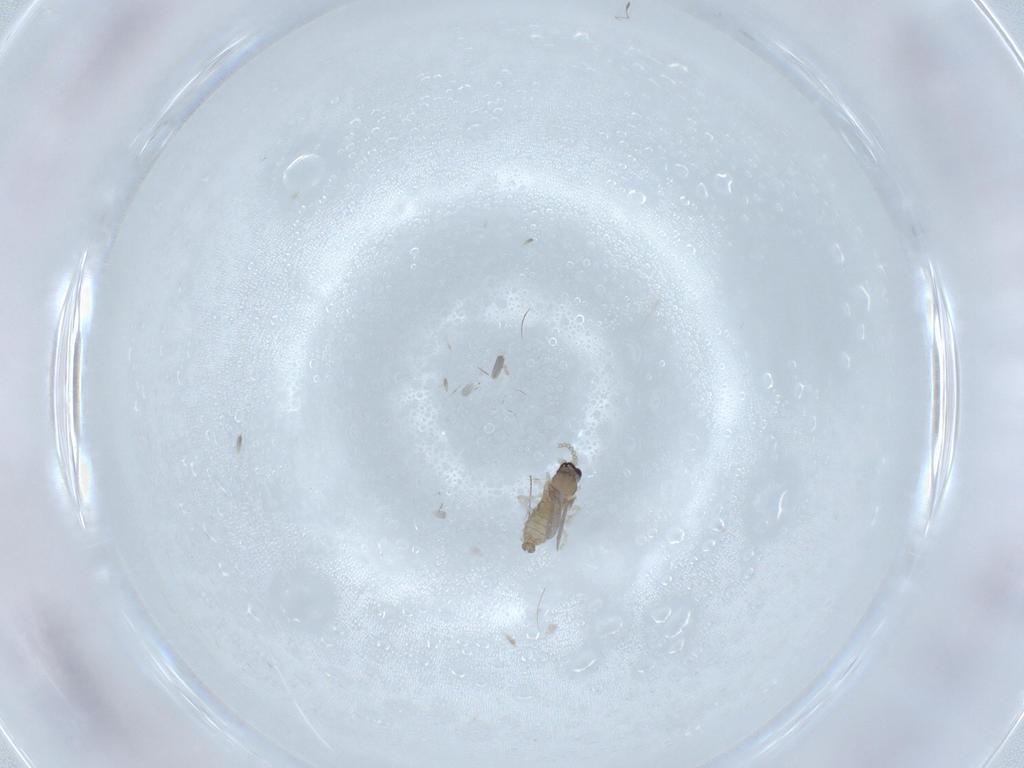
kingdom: Animalia
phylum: Arthropoda
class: Insecta
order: Diptera
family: Cecidomyiidae
